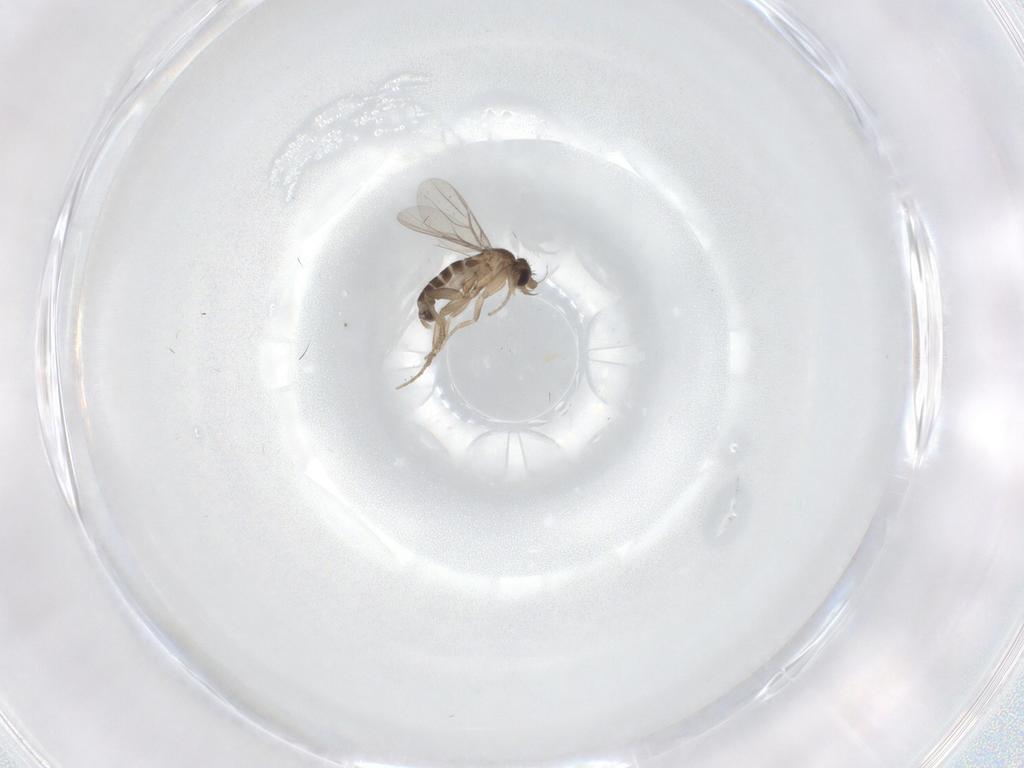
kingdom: Animalia
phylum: Arthropoda
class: Insecta
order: Diptera
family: Phoridae
